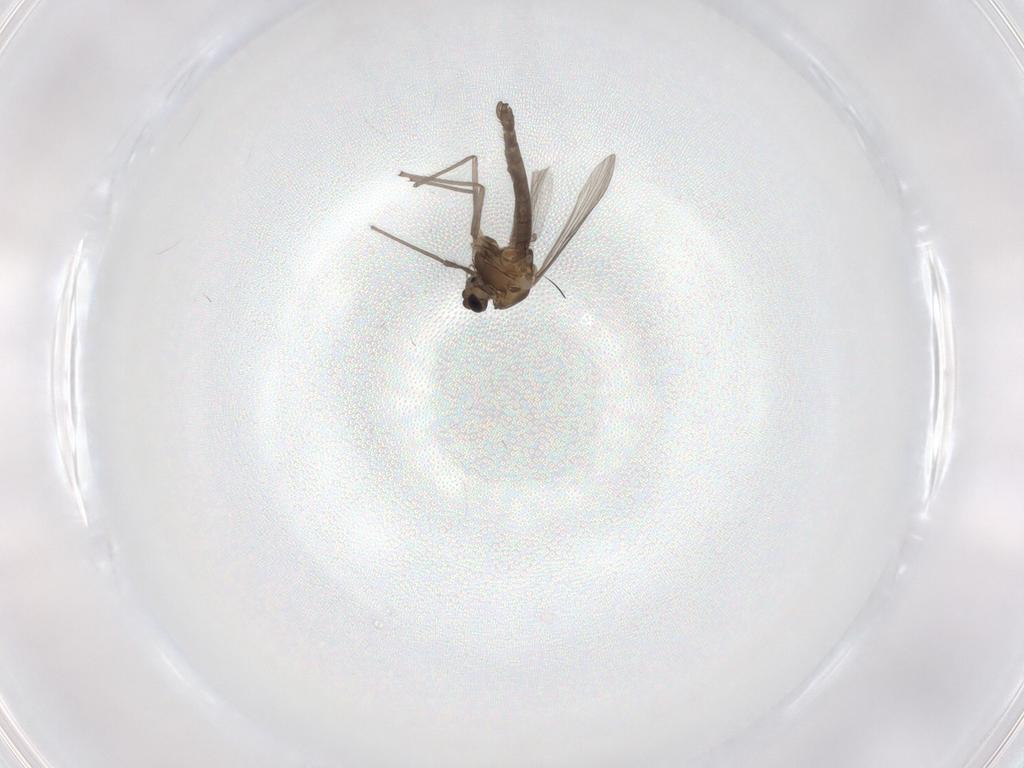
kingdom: Animalia
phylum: Arthropoda
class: Insecta
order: Diptera
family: Chironomidae
